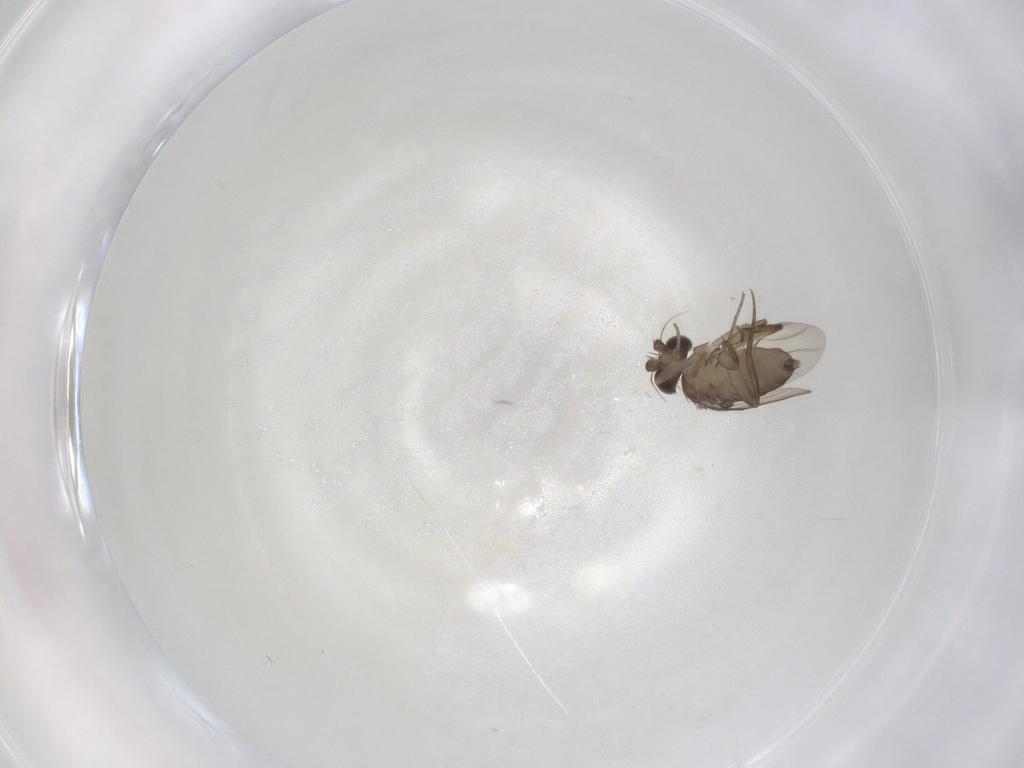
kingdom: Animalia
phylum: Arthropoda
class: Insecta
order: Diptera
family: Phoridae
